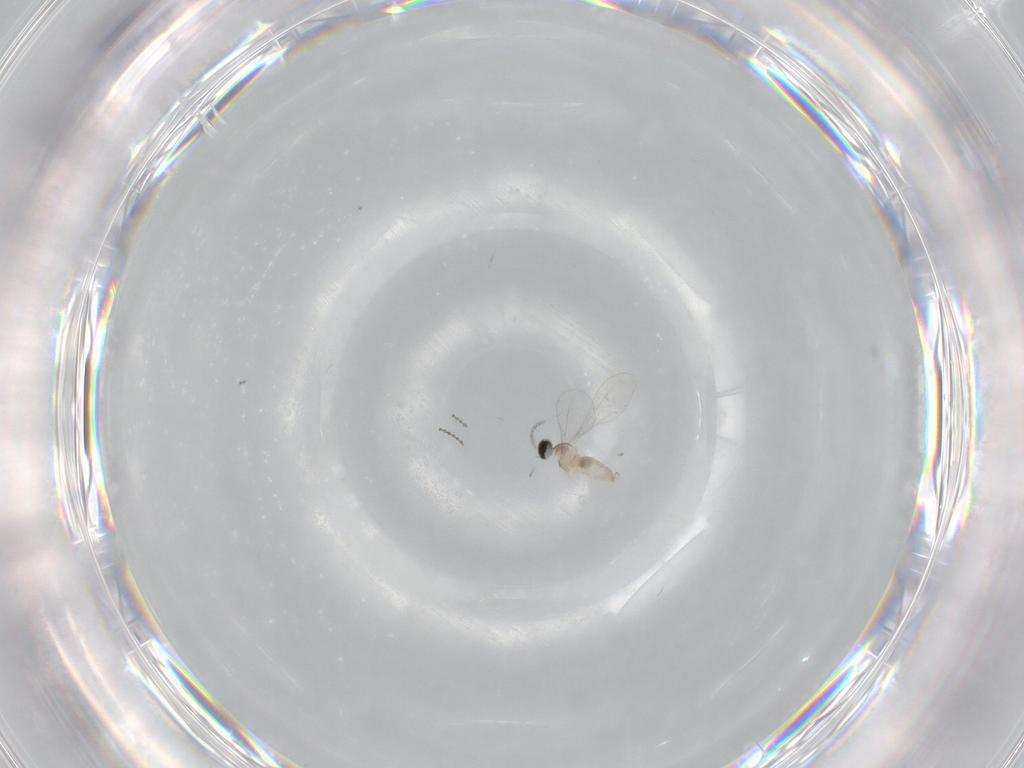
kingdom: Animalia
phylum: Arthropoda
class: Insecta
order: Diptera
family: Cecidomyiidae
